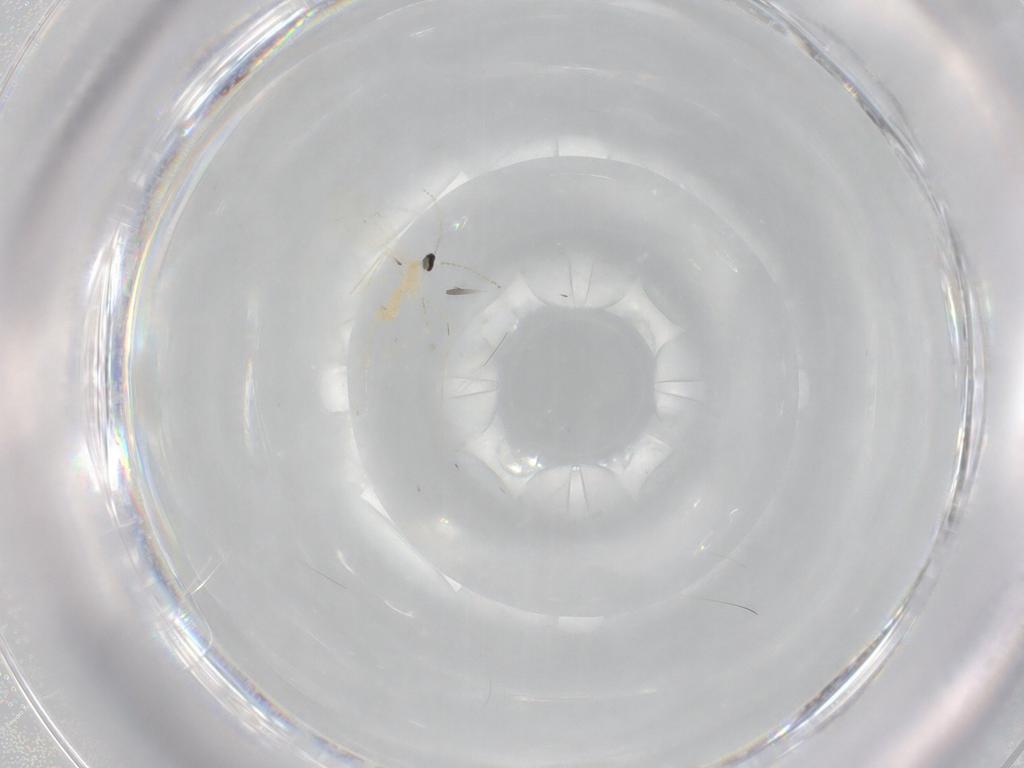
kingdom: Animalia
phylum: Arthropoda
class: Insecta
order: Diptera
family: Cecidomyiidae
